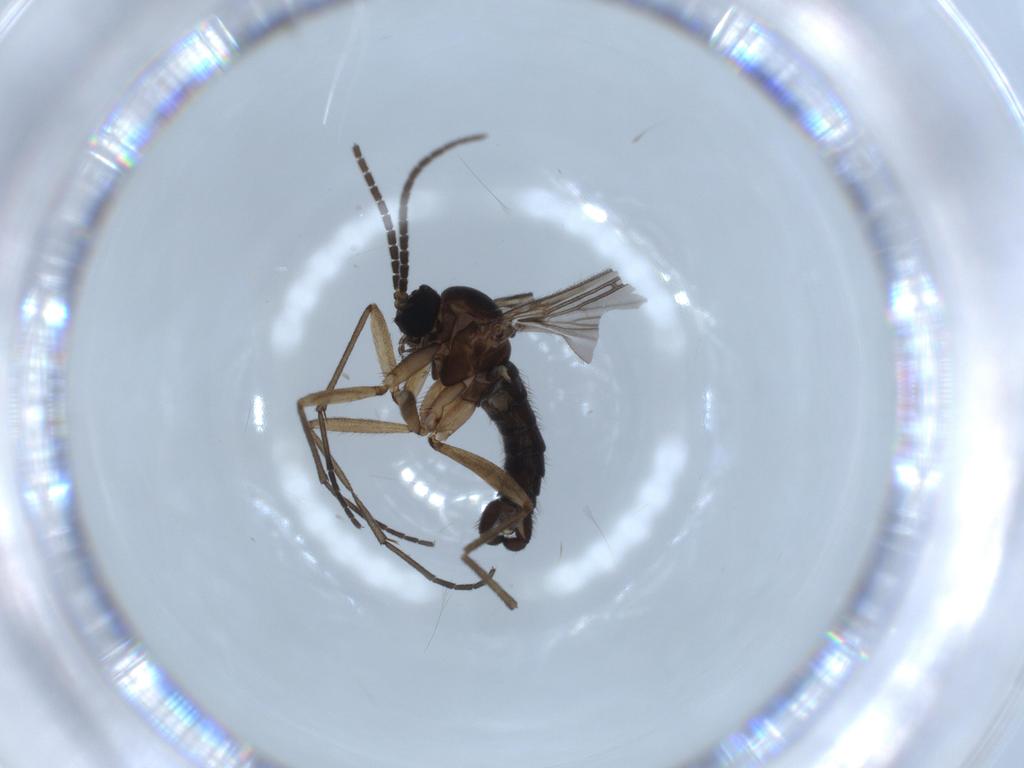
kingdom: Animalia
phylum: Arthropoda
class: Insecta
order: Diptera
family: Sciaridae
